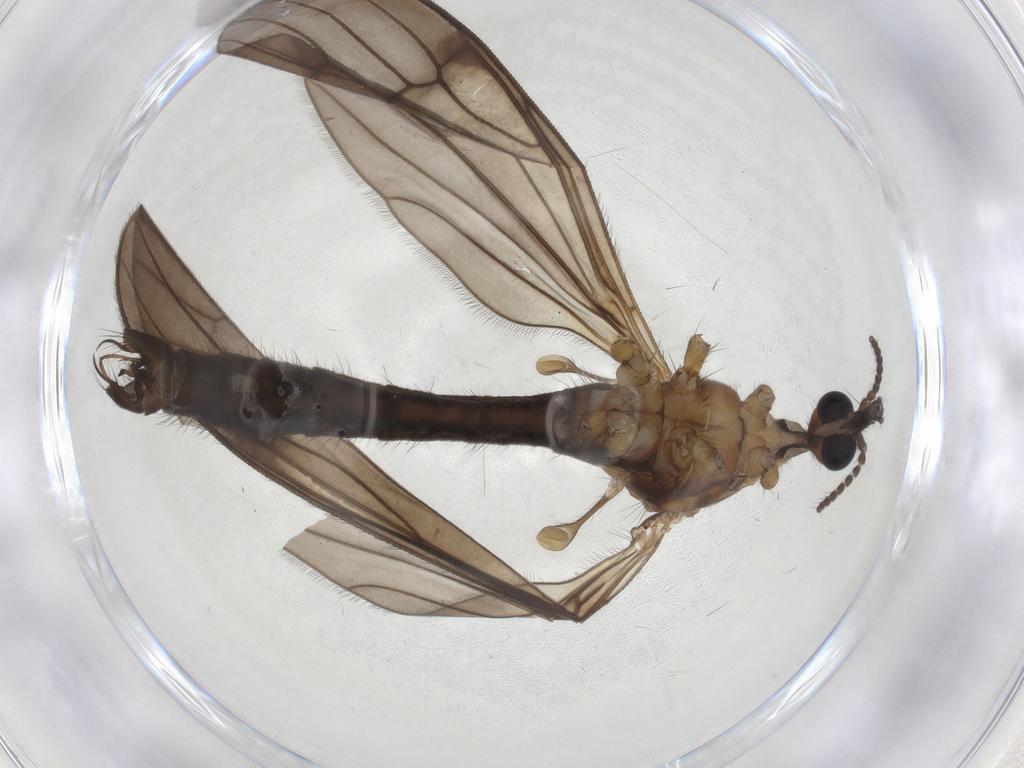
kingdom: Animalia
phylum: Arthropoda
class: Insecta
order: Diptera
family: Limoniidae
